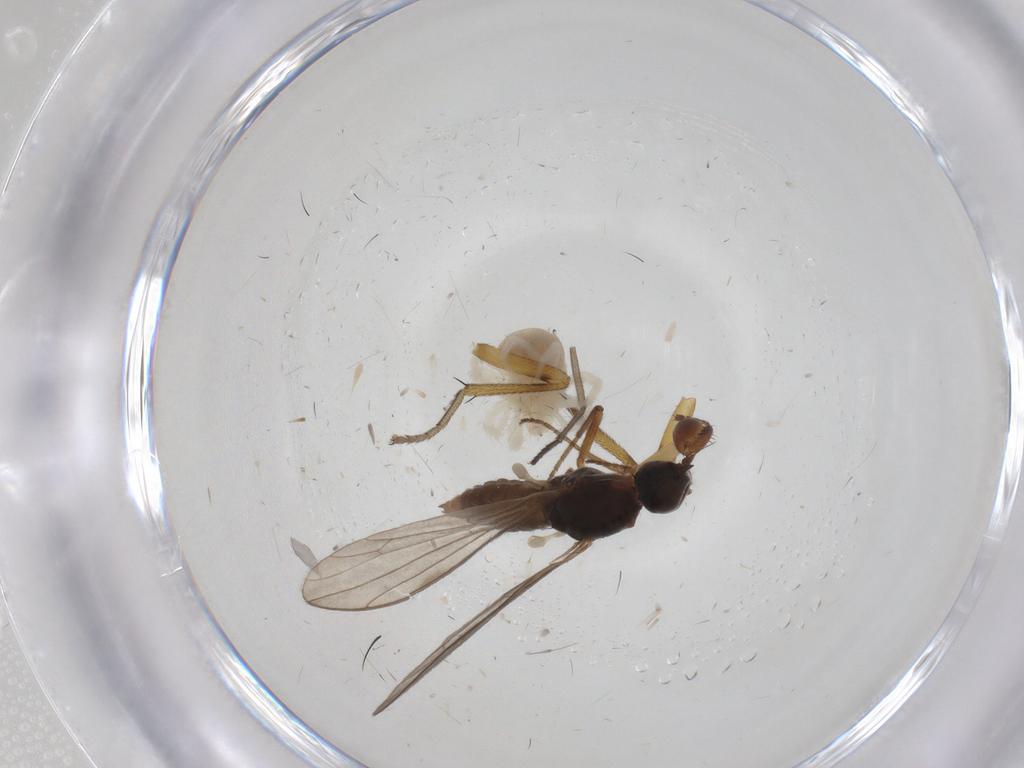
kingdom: Animalia
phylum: Arthropoda
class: Insecta
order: Diptera
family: Empididae
